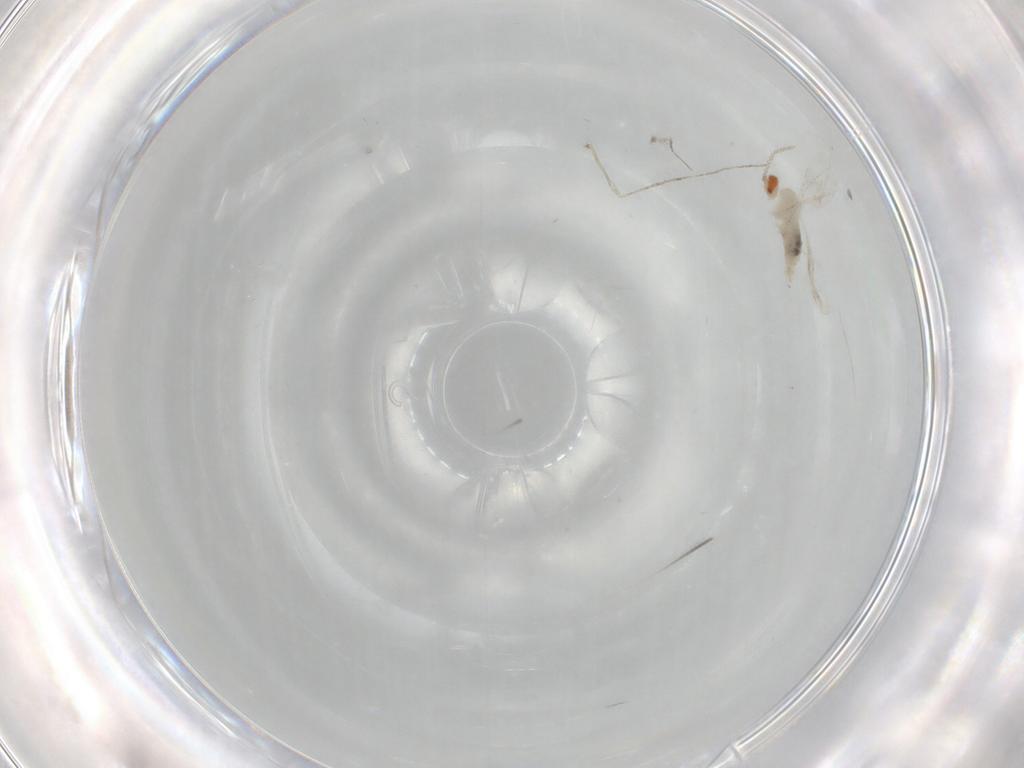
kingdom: Animalia
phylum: Arthropoda
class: Insecta
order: Diptera
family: Cecidomyiidae
